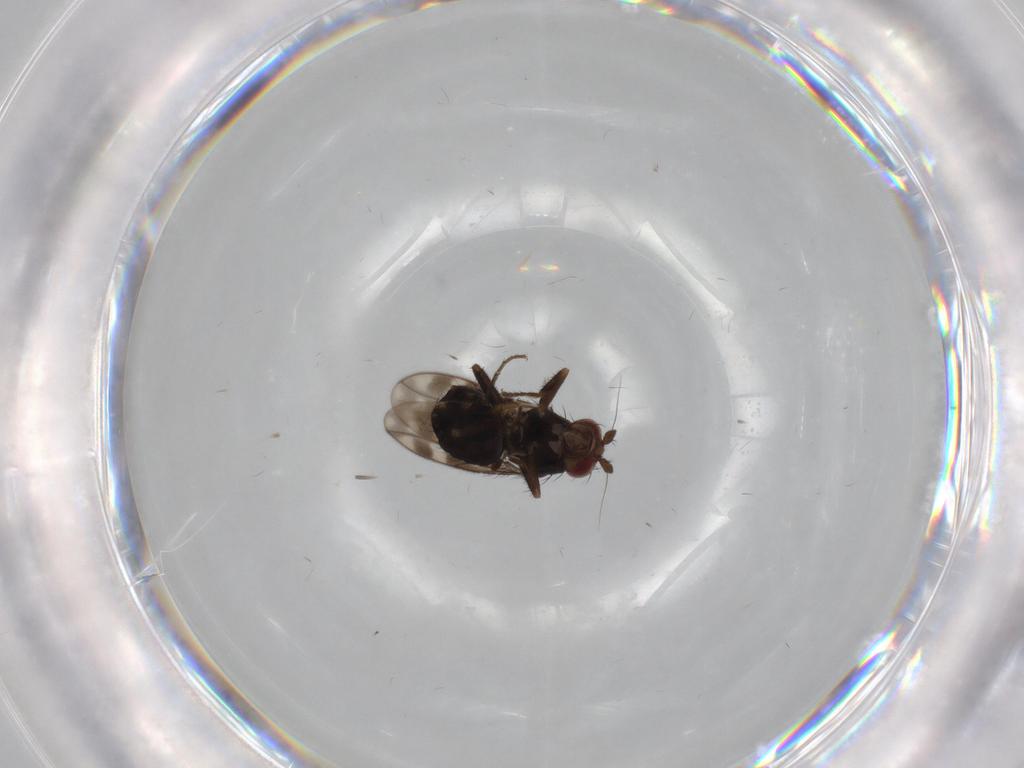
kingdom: Animalia
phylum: Arthropoda
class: Insecta
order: Diptera
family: Sphaeroceridae
